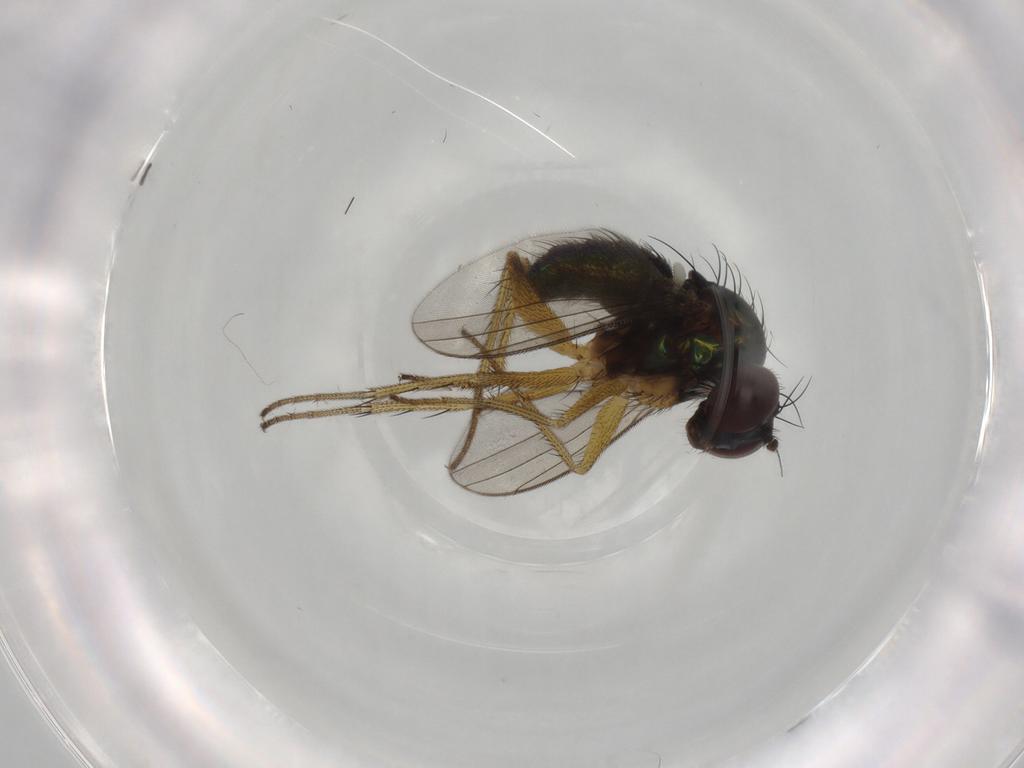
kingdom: Animalia
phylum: Arthropoda
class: Insecta
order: Diptera
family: Dolichopodidae
